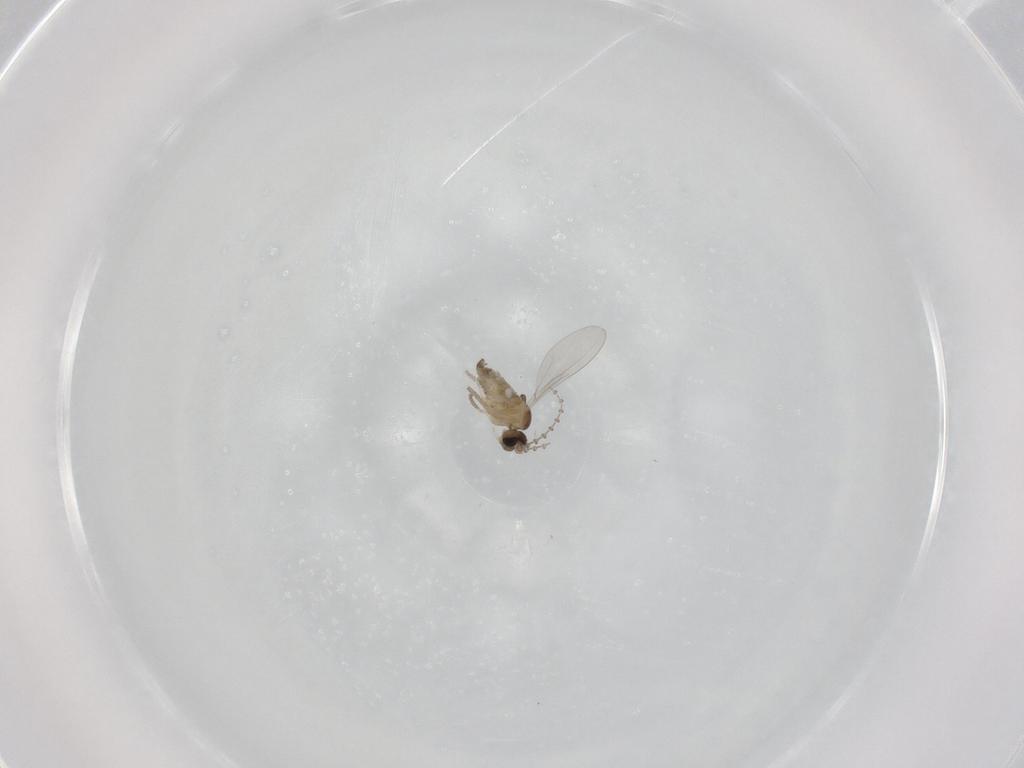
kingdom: Animalia
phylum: Arthropoda
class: Insecta
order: Diptera
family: Cecidomyiidae
